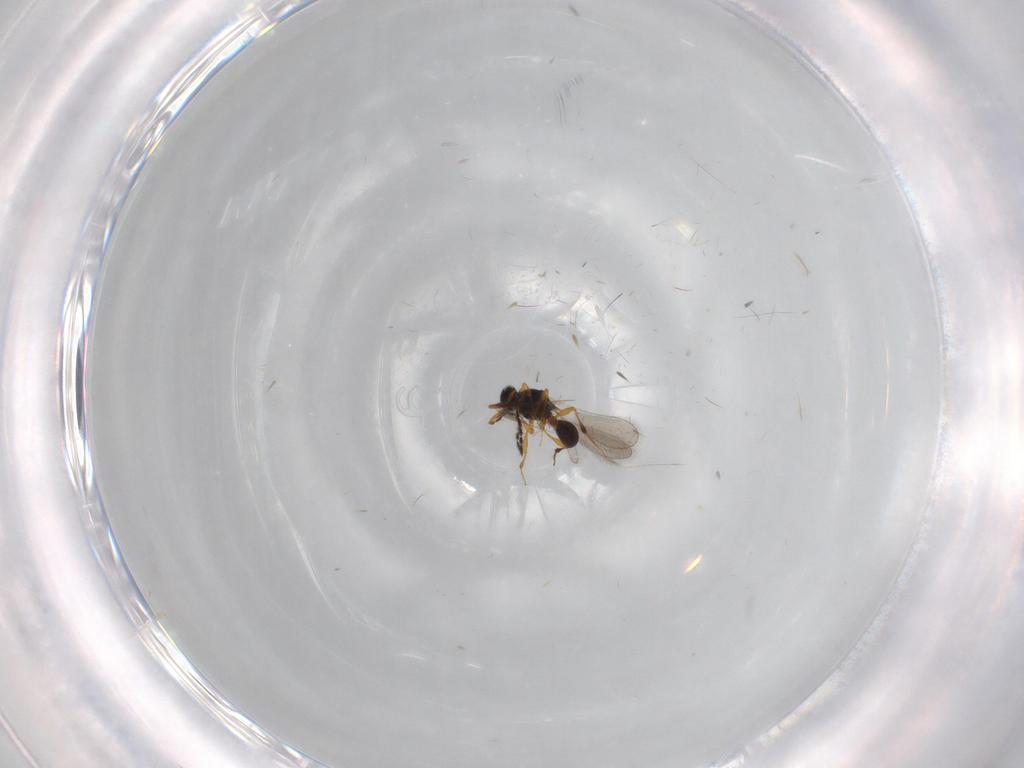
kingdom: Animalia
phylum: Arthropoda
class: Insecta
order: Hymenoptera
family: Platygastridae
